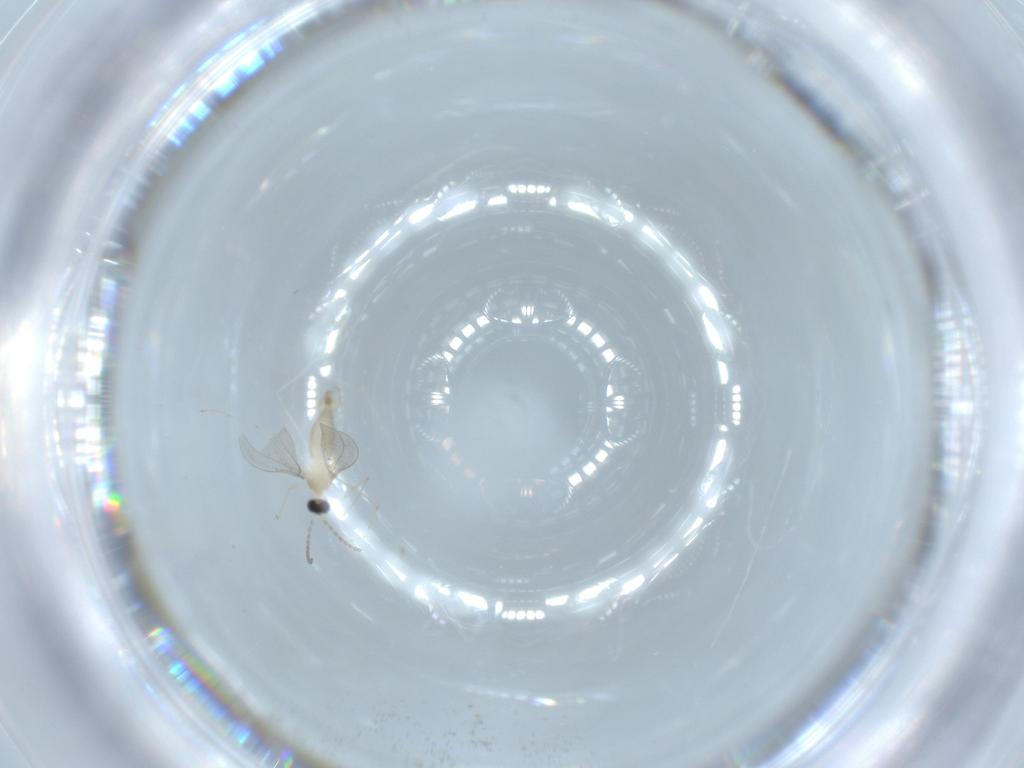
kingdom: Animalia
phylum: Arthropoda
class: Insecta
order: Diptera
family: Cecidomyiidae
